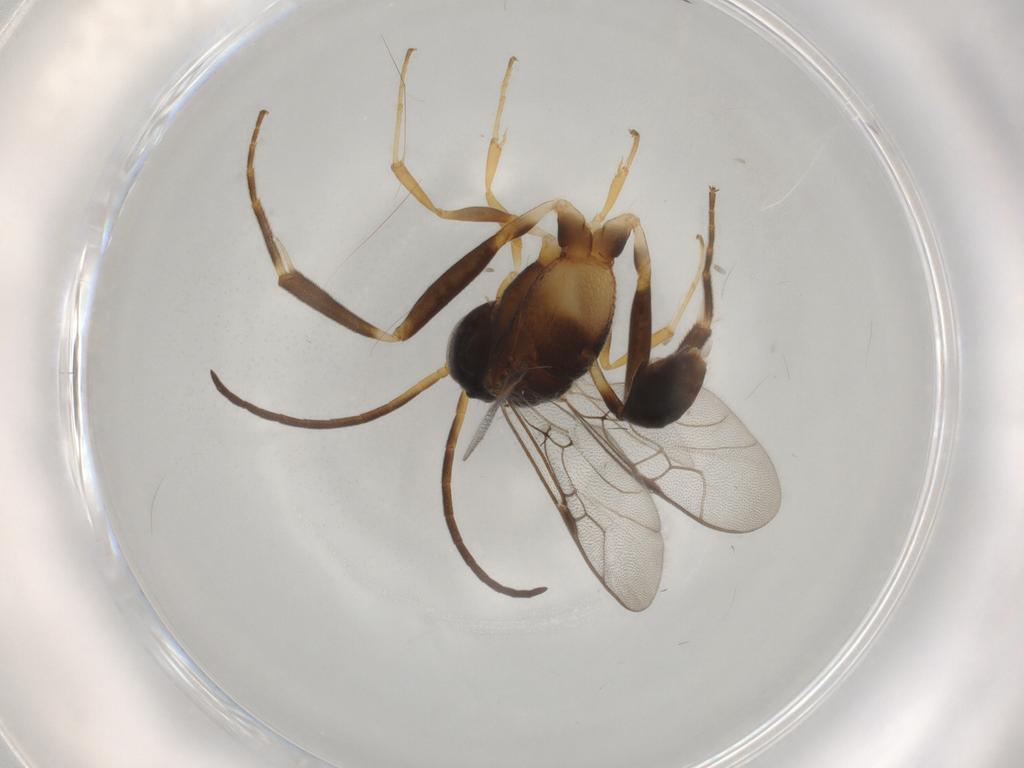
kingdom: Animalia
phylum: Arthropoda
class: Insecta
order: Hymenoptera
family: Evaniidae
